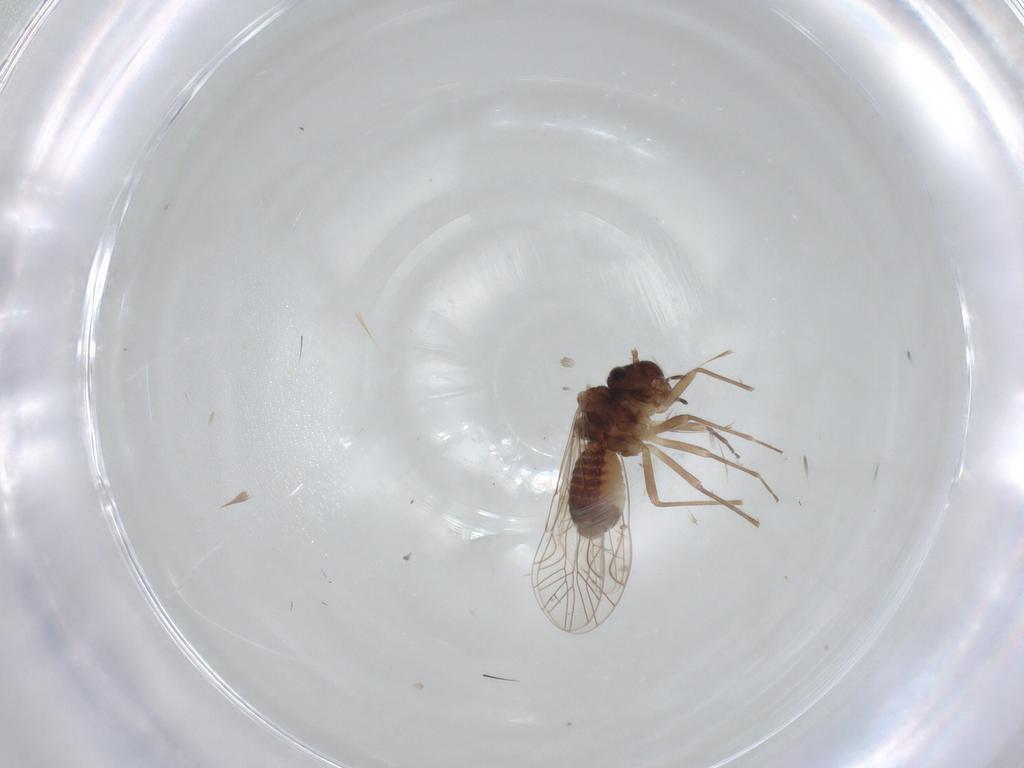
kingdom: Animalia
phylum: Arthropoda
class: Insecta
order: Psocodea
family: Lachesillidae
